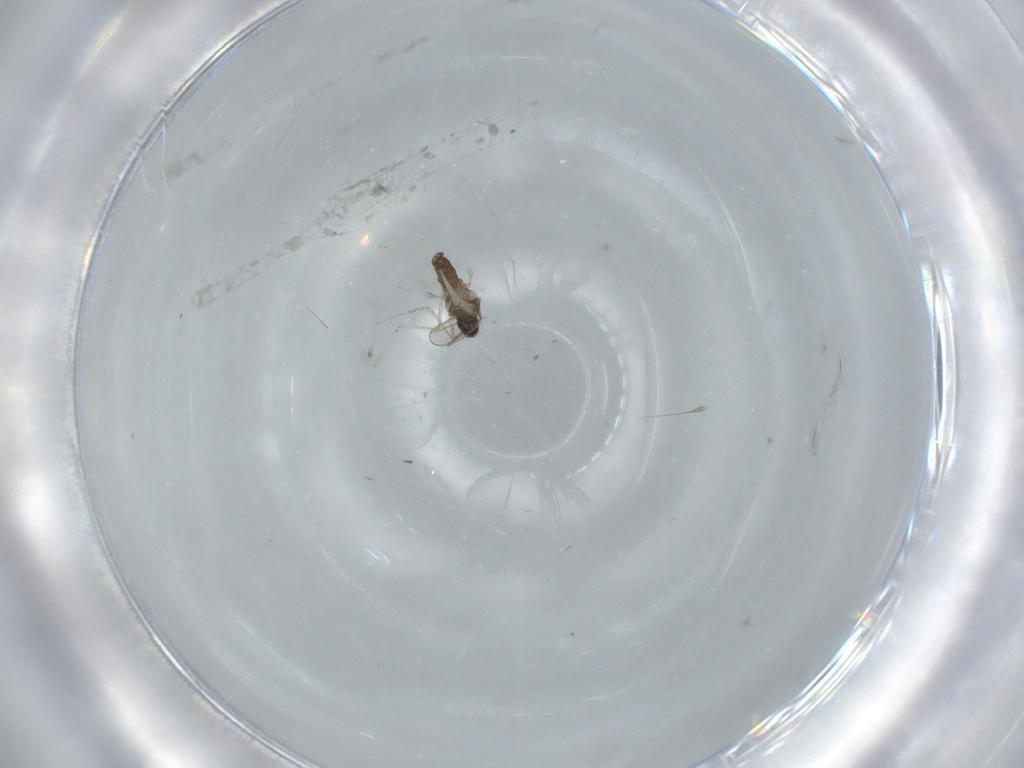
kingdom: Animalia
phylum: Arthropoda
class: Insecta
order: Diptera
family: Cecidomyiidae
